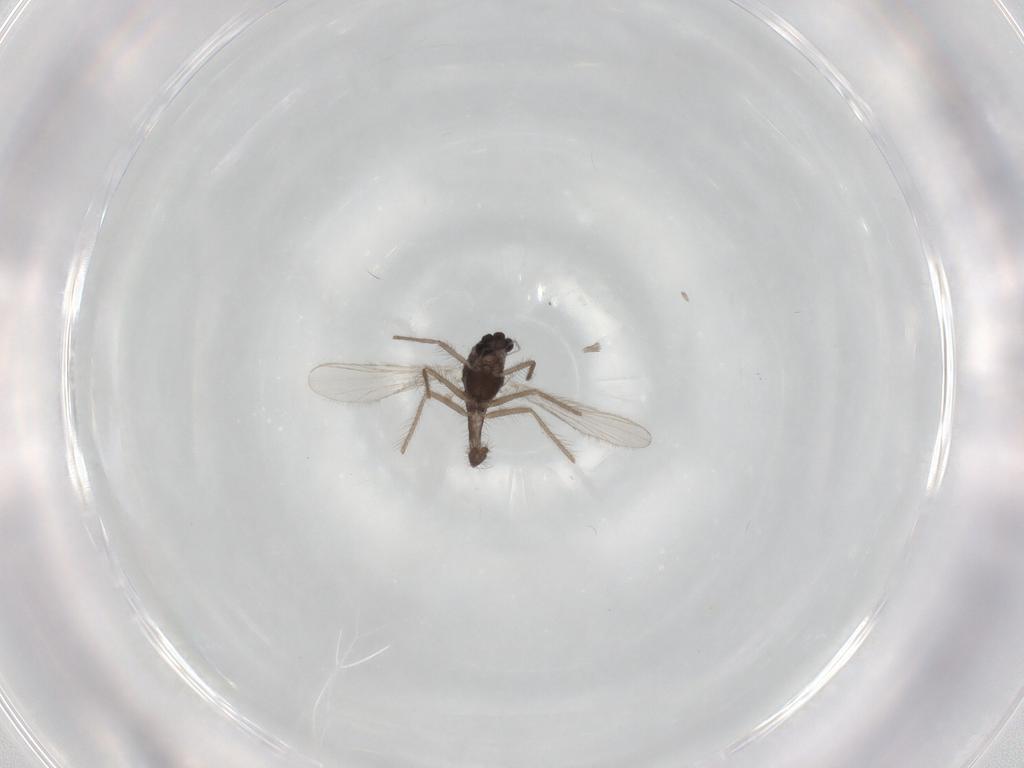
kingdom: Animalia
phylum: Arthropoda
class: Insecta
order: Diptera
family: Chironomidae
